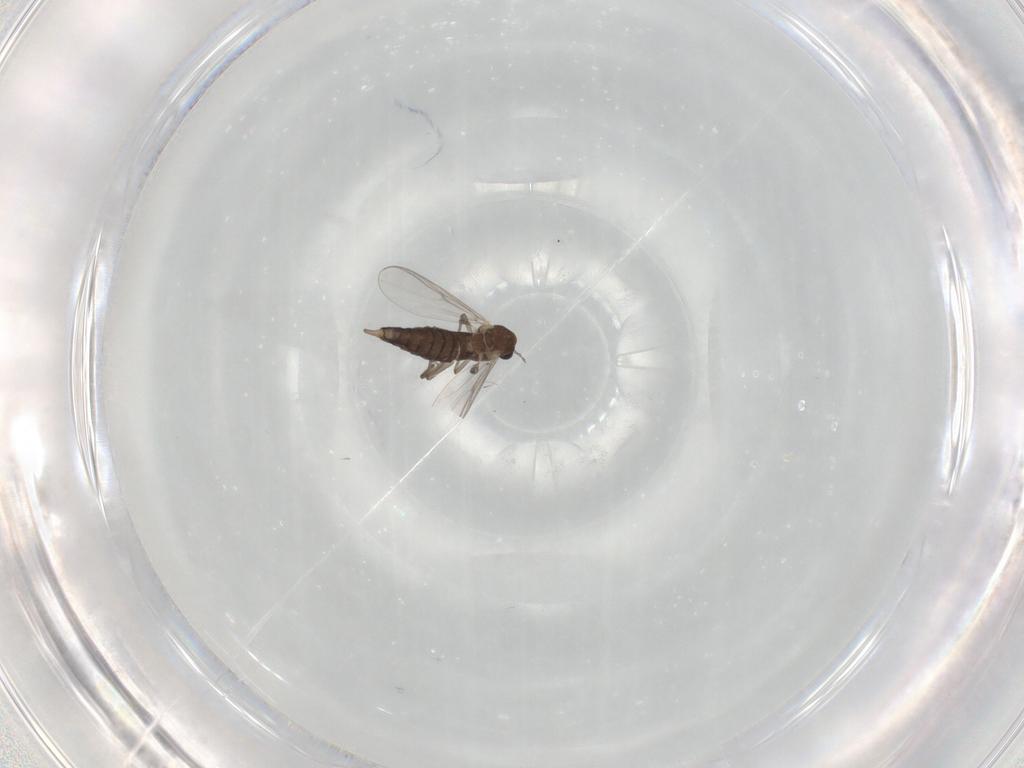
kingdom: Animalia
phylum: Arthropoda
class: Insecta
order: Diptera
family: Chironomidae
